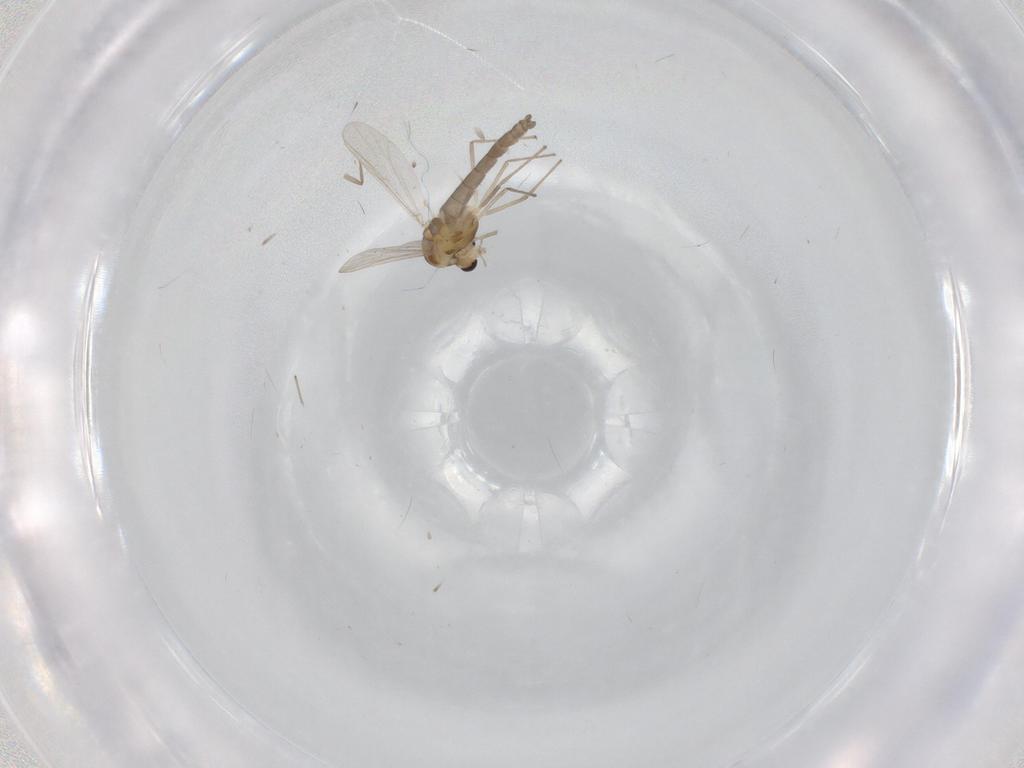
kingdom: Animalia
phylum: Arthropoda
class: Insecta
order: Diptera
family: Chironomidae
